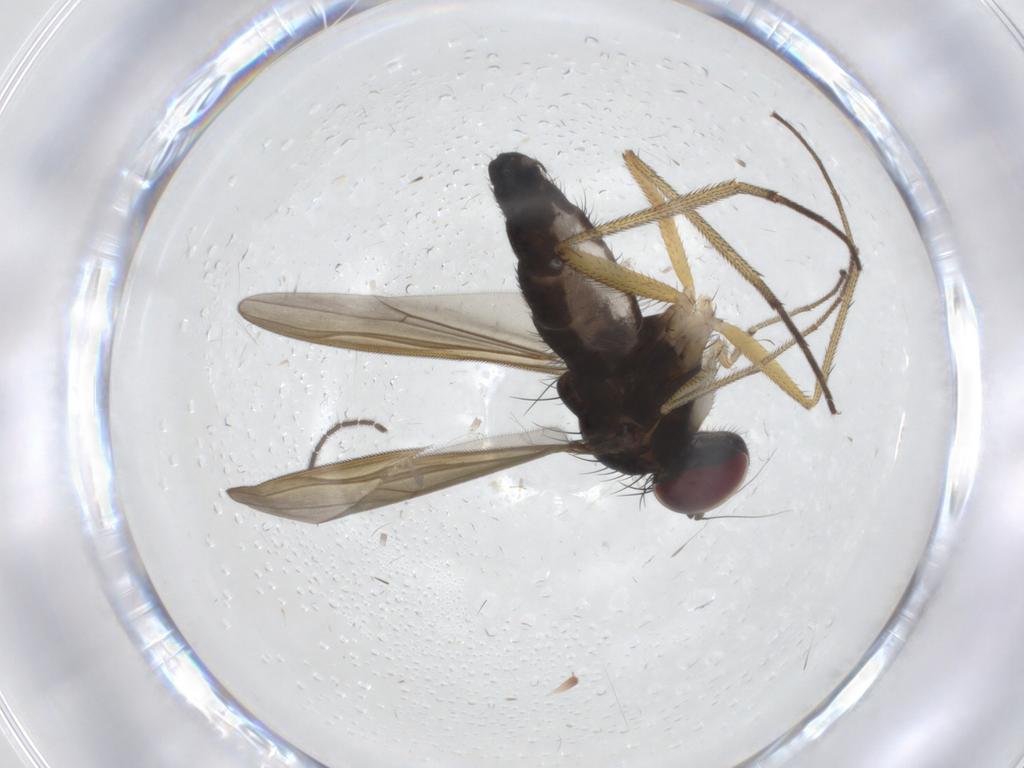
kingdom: Animalia
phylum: Arthropoda
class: Insecta
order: Diptera
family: Dolichopodidae
